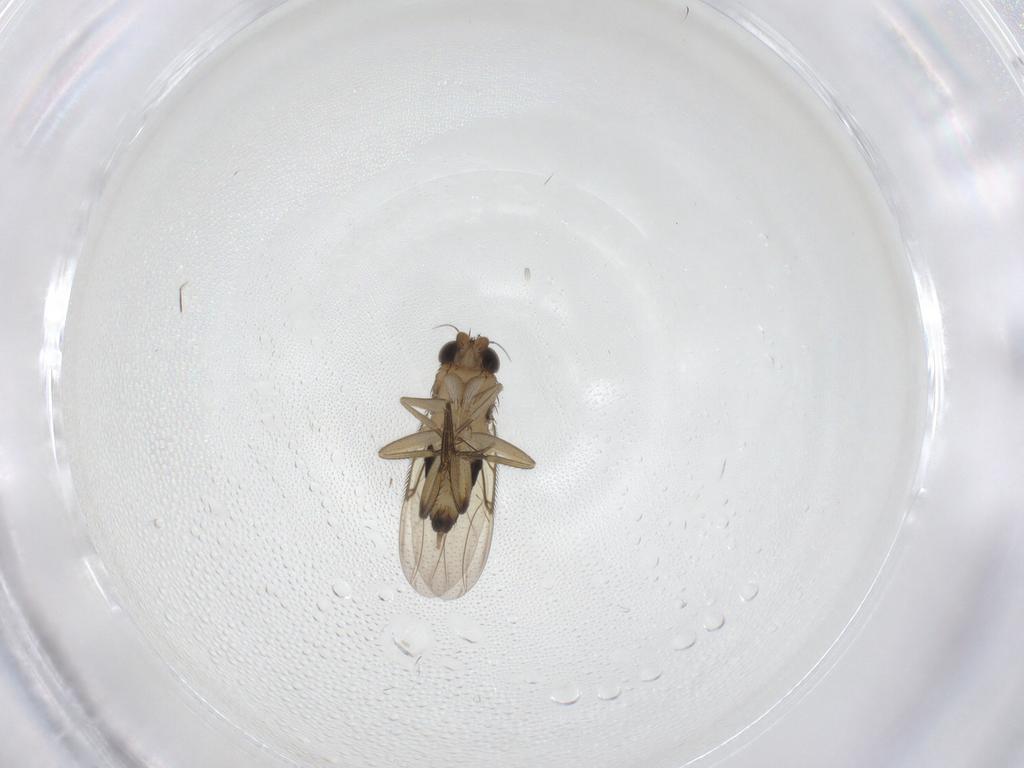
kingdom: Animalia
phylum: Arthropoda
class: Insecta
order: Diptera
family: Phoridae
